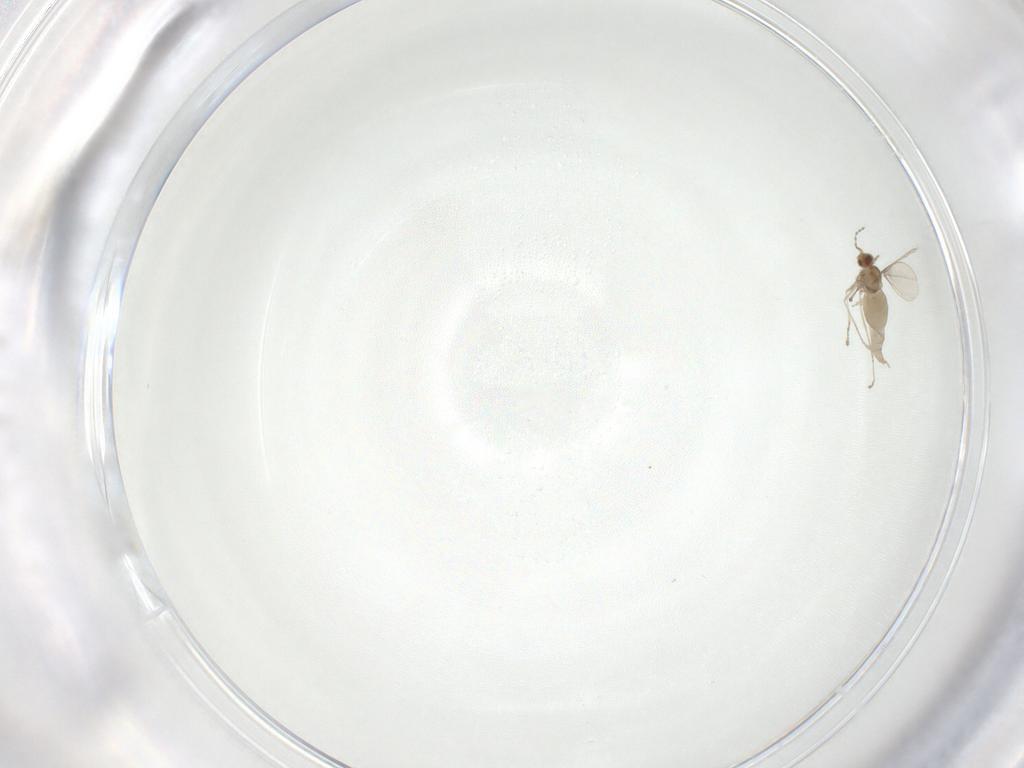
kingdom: Animalia
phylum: Arthropoda
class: Insecta
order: Diptera
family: Cecidomyiidae
